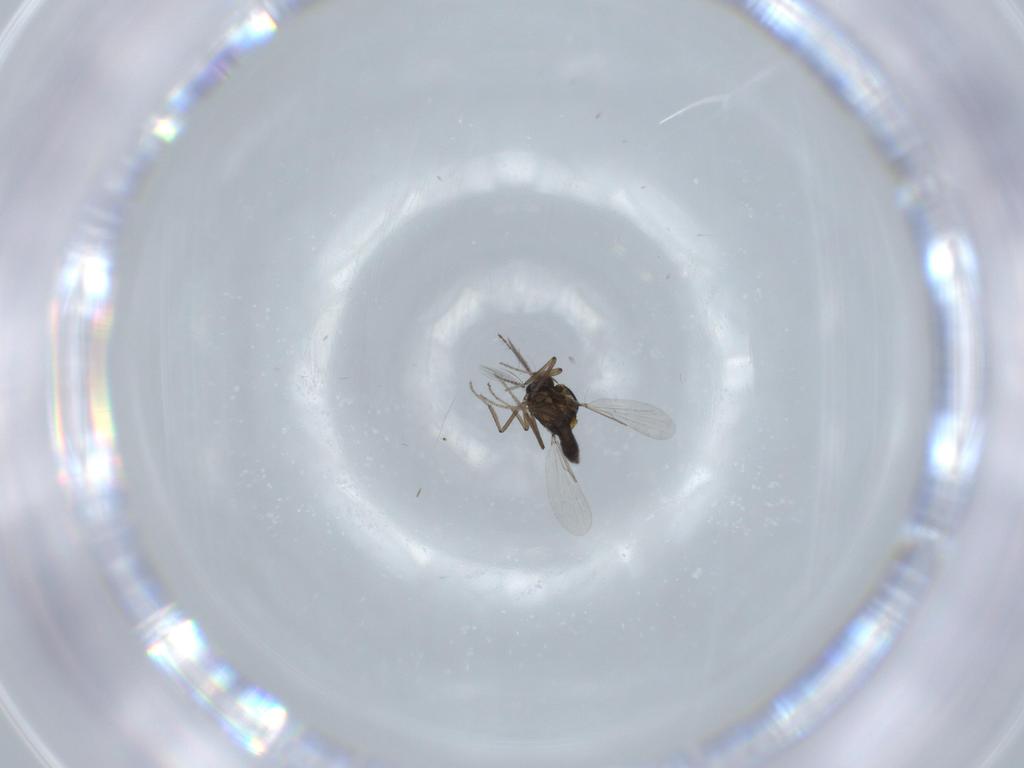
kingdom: Animalia
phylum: Arthropoda
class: Insecta
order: Diptera
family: Ceratopogonidae
